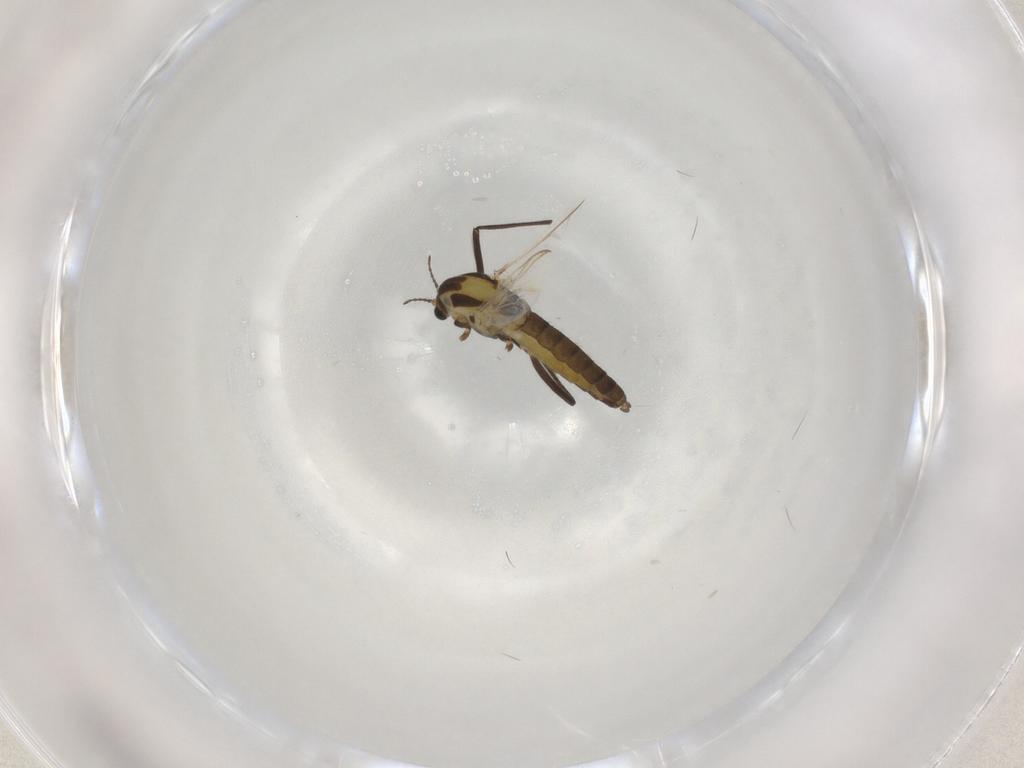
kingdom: Animalia
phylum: Arthropoda
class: Insecta
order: Diptera
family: Chironomidae
